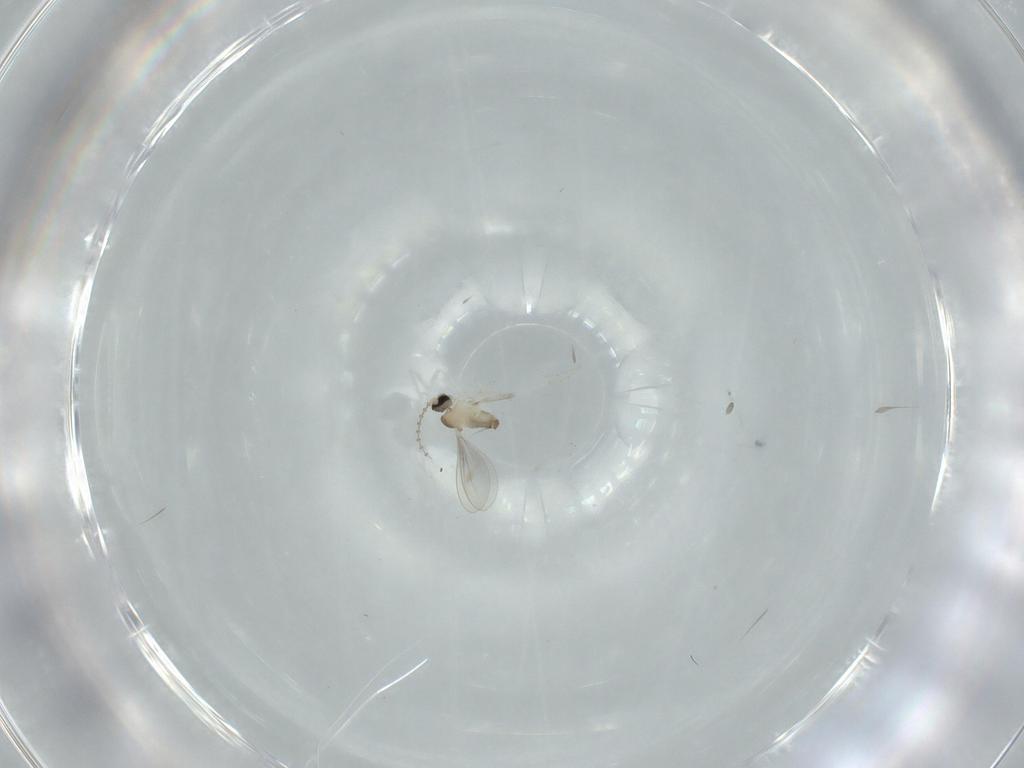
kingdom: Animalia
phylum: Arthropoda
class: Insecta
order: Diptera
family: Cecidomyiidae
